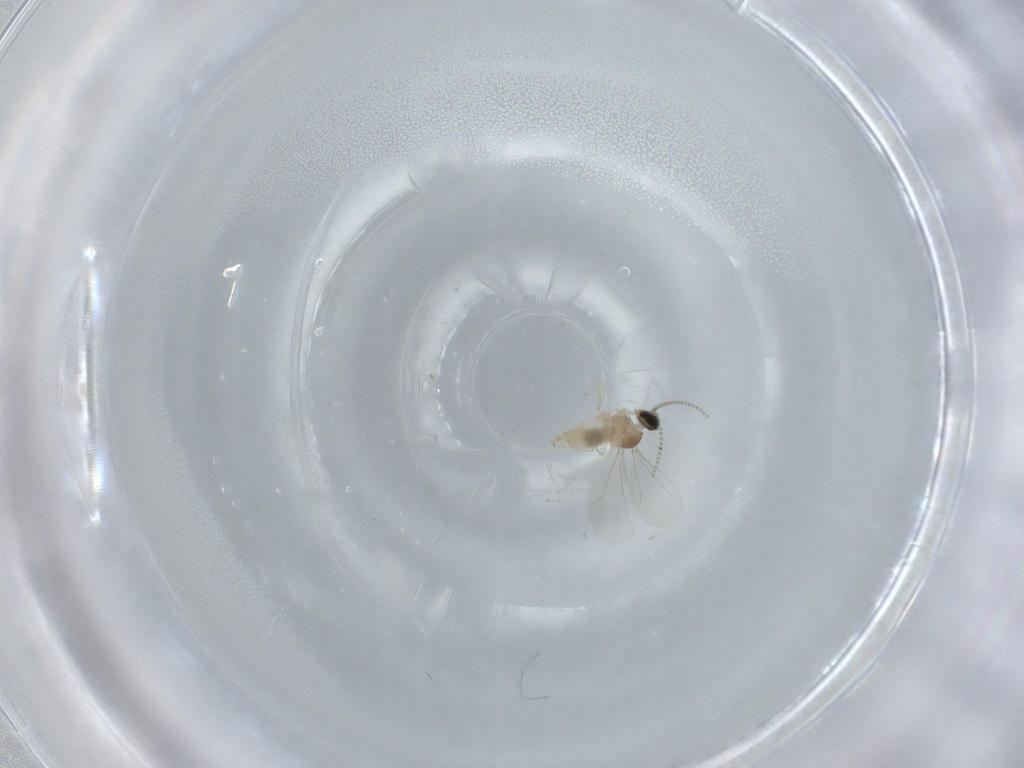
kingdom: Animalia
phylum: Arthropoda
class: Insecta
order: Diptera
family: Cecidomyiidae
